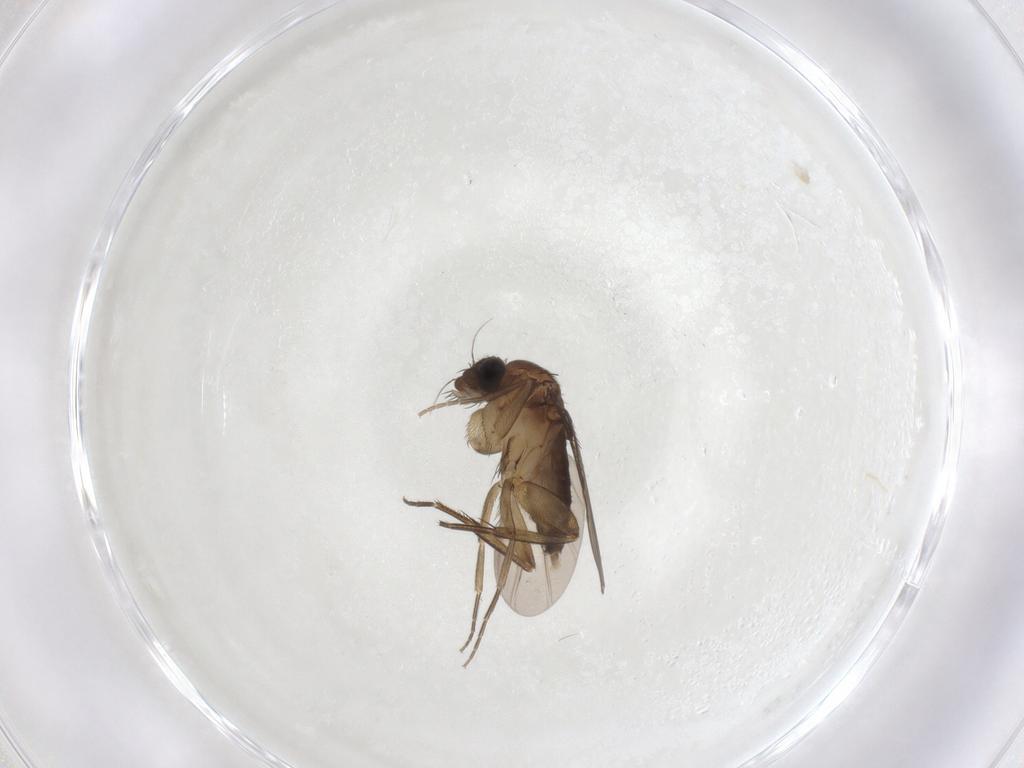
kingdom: Animalia
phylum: Arthropoda
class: Insecta
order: Diptera
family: Phoridae
